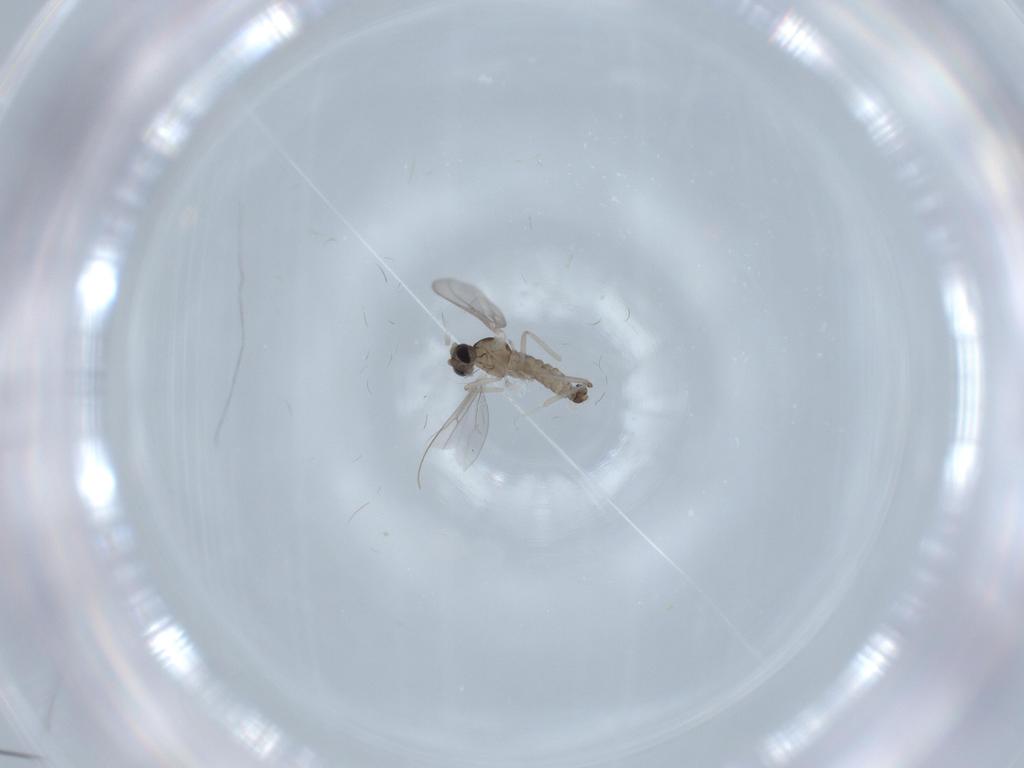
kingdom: Animalia
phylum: Arthropoda
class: Insecta
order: Diptera
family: Cecidomyiidae
